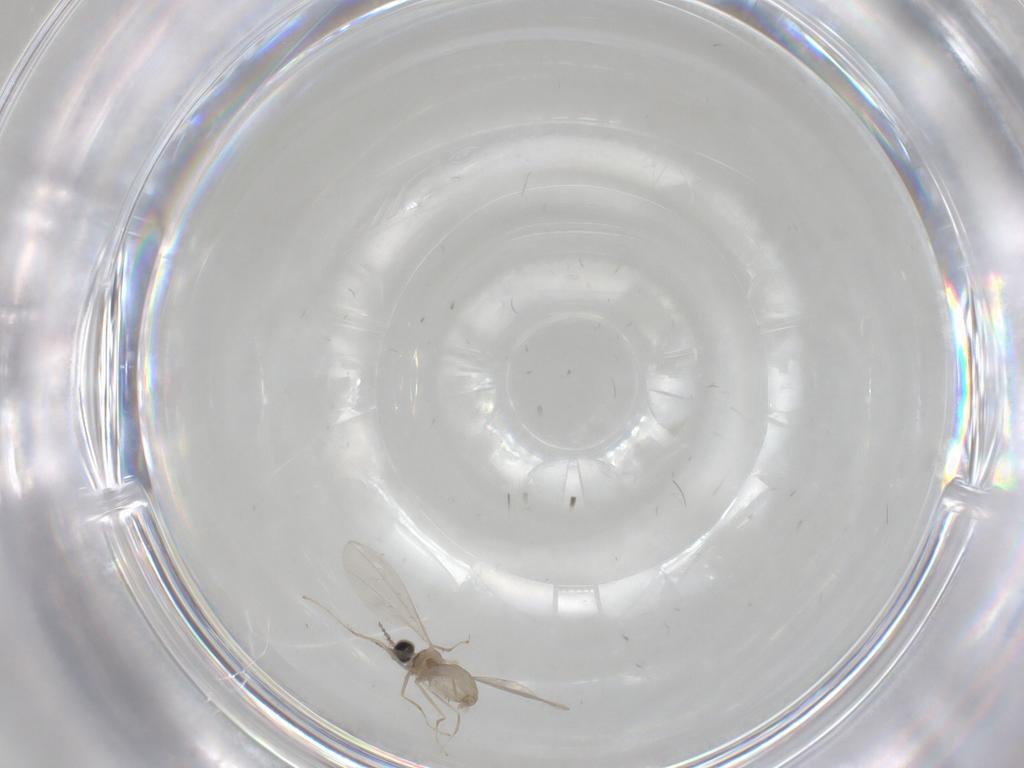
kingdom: Animalia
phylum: Arthropoda
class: Insecta
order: Diptera
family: Cecidomyiidae
